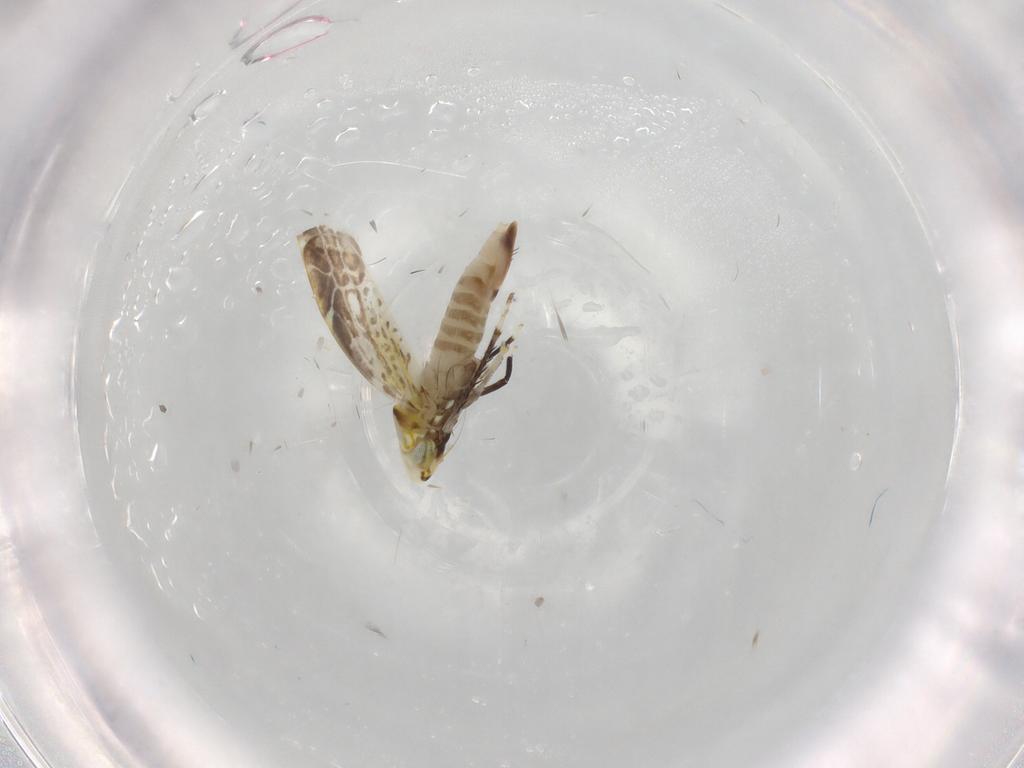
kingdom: Animalia
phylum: Arthropoda
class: Insecta
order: Hemiptera
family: Cicadellidae
